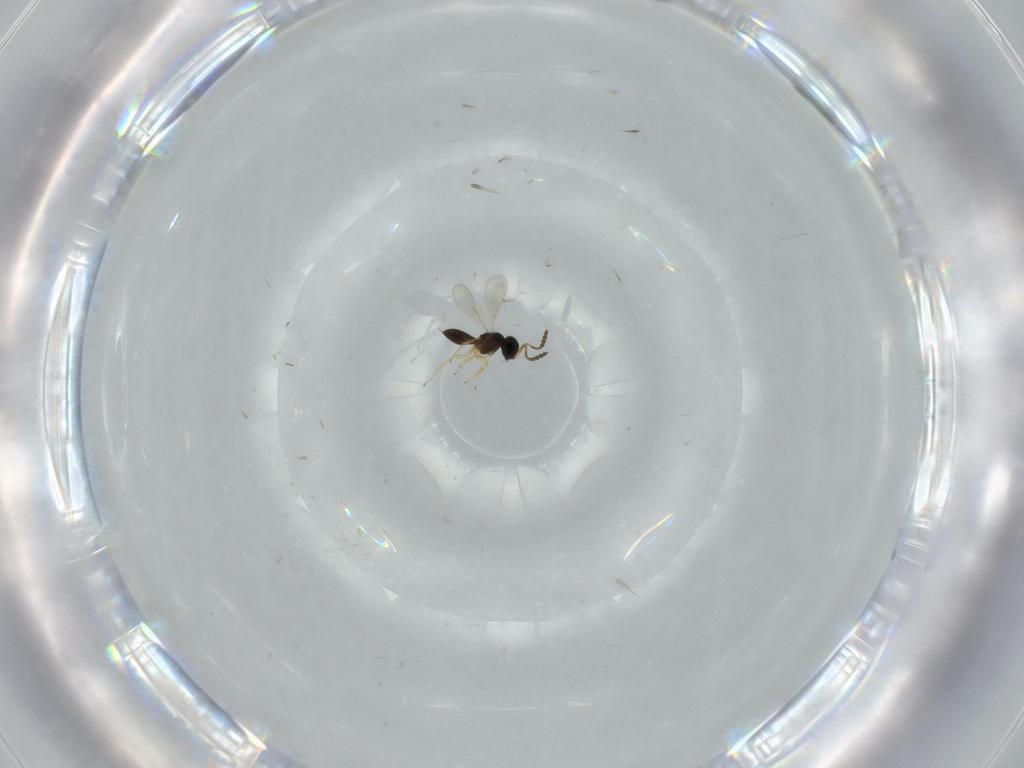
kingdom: Animalia
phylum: Arthropoda
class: Insecta
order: Hymenoptera
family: Scelionidae
